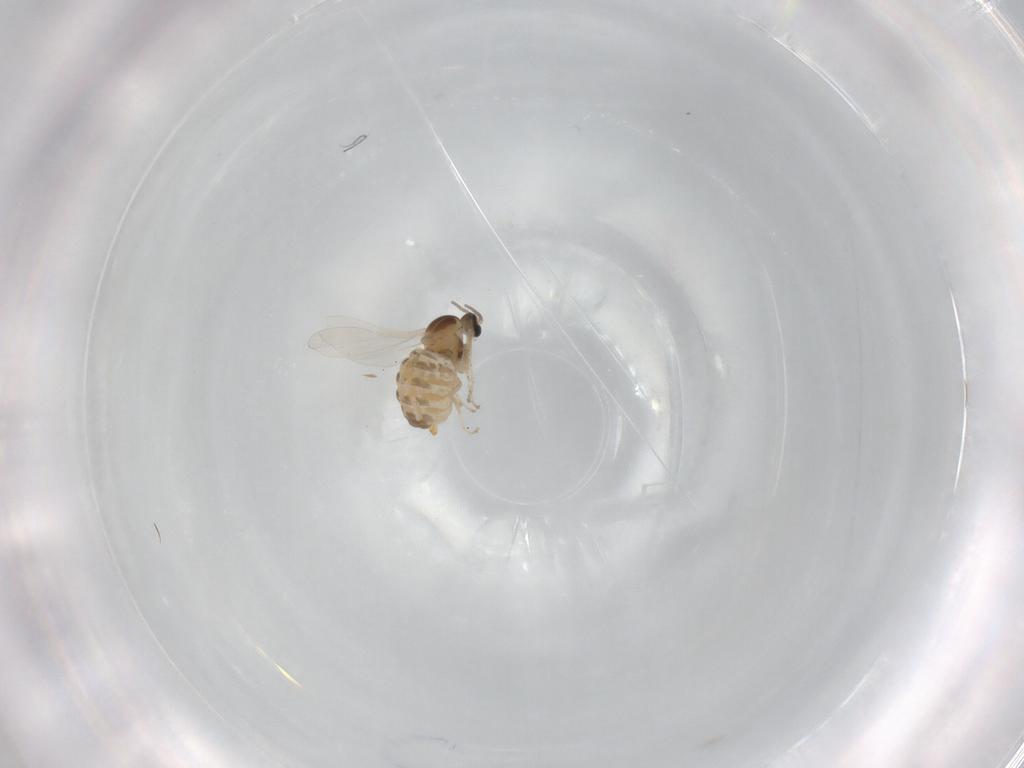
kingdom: Animalia
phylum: Arthropoda
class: Insecta
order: Diptera
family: Cecidomyiidae
